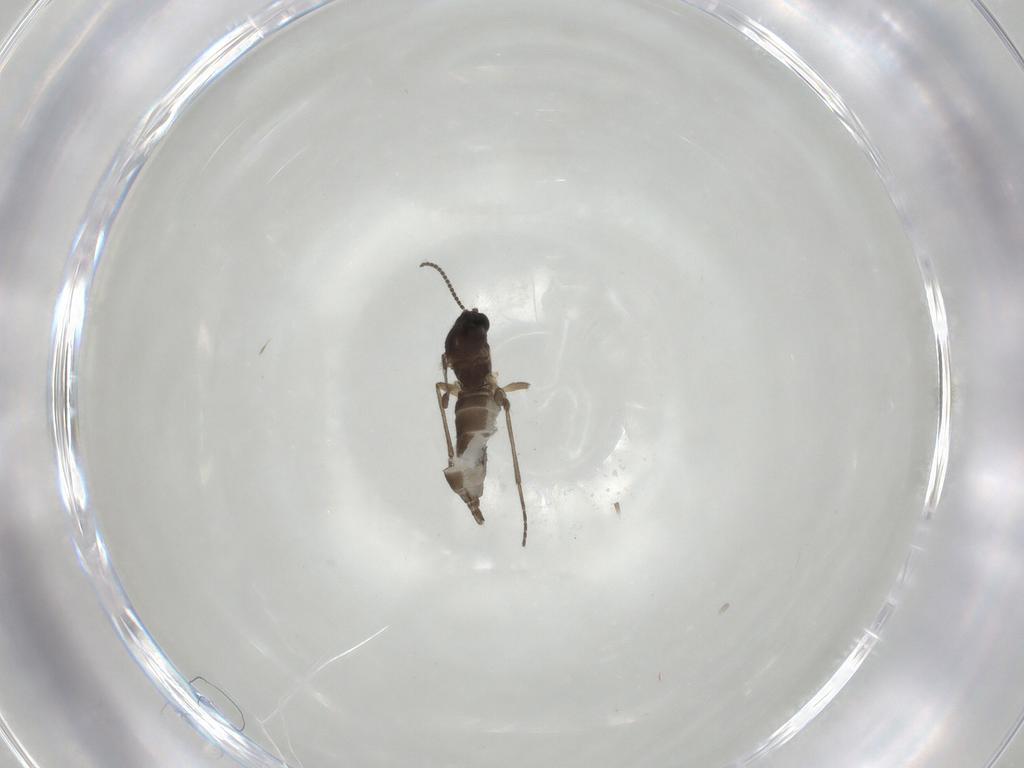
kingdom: Animalia
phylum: Arthropoda
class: Insecta
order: Diptera
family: Sciaridae
